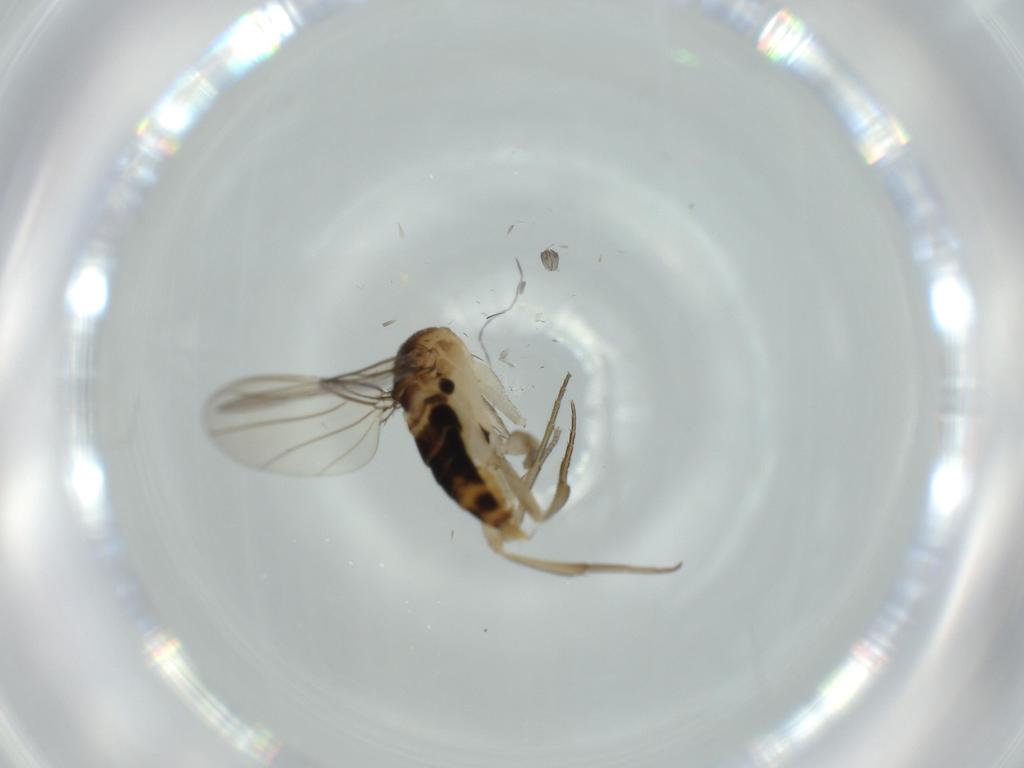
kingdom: Animalia
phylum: Arthropoda
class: Insecta
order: Diptera
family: Phoridae
